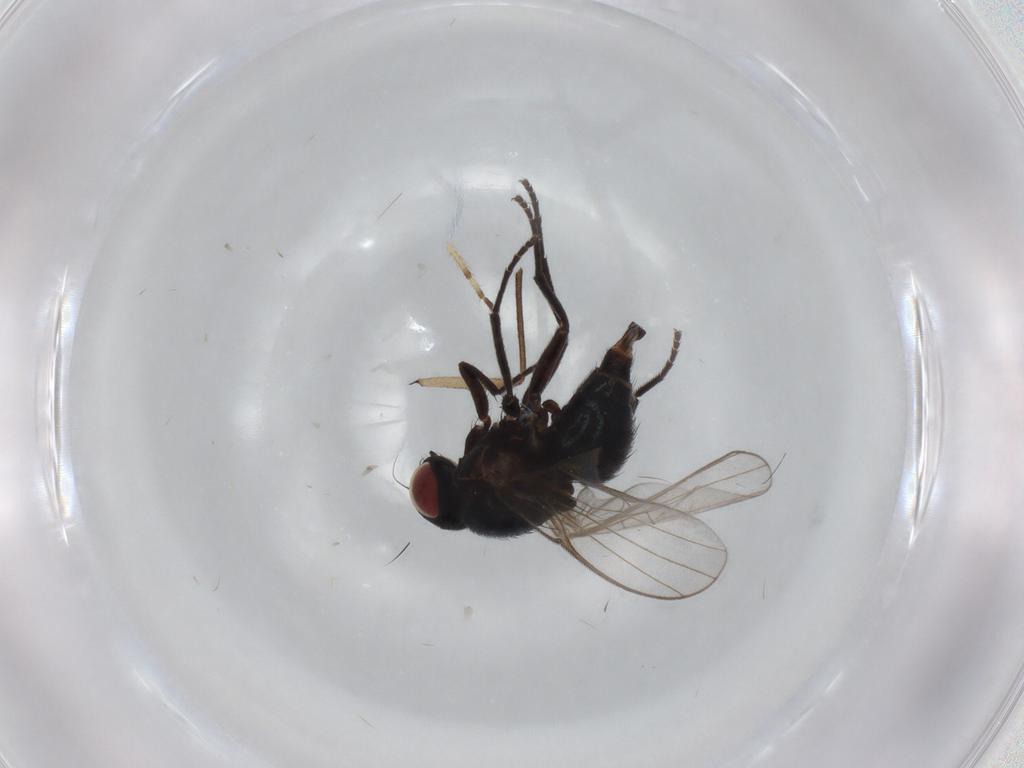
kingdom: Animalia
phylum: Arthropoda
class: Insecta
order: Diptera
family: Agromyzidae
